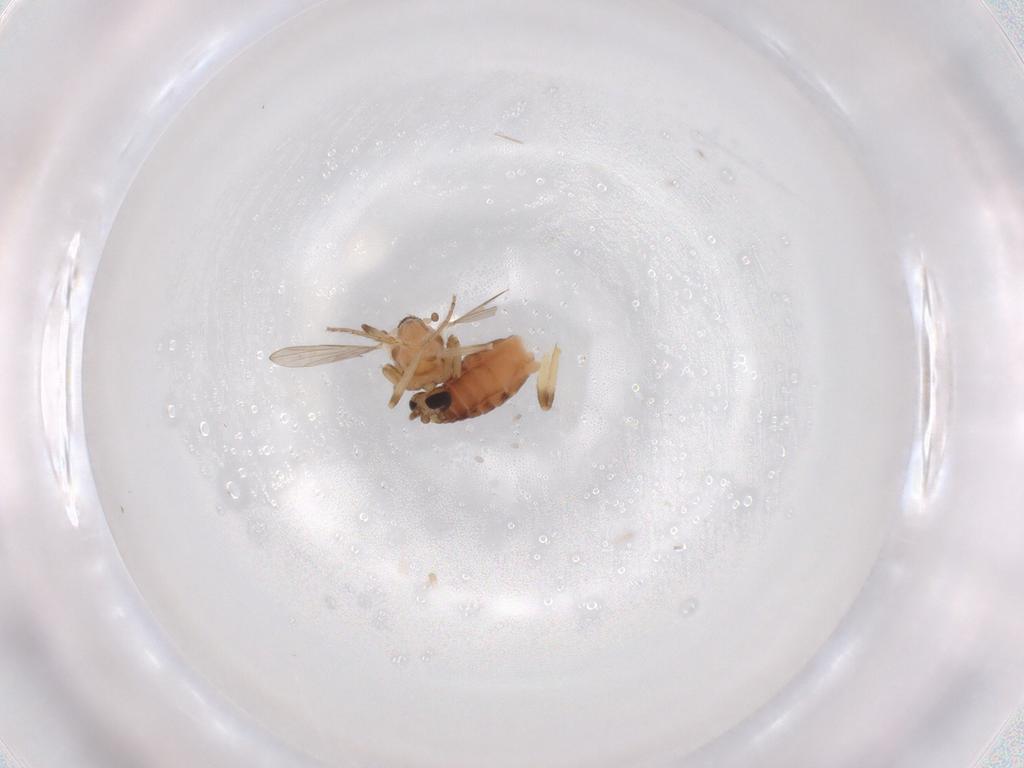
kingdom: Animalia
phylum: Arthropoda
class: Insecta
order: Diptera
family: Ceratopogonidae
